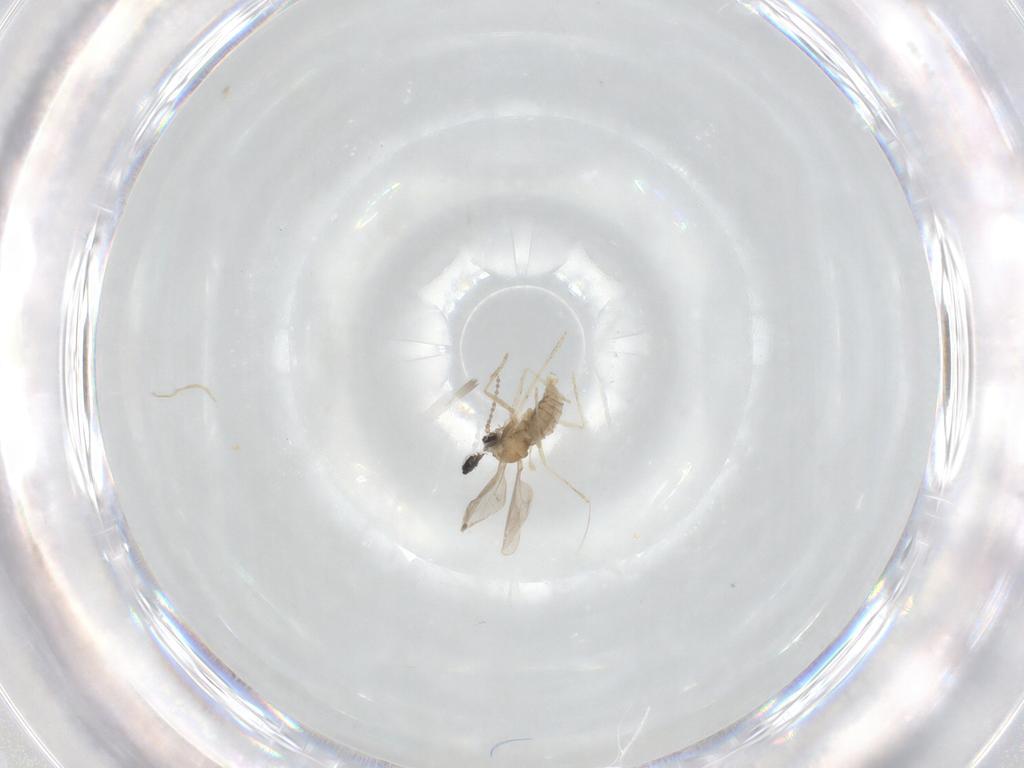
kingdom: Animalia
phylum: Arthropoda
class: Insecta
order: Diptera
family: Cecidomyiidae
